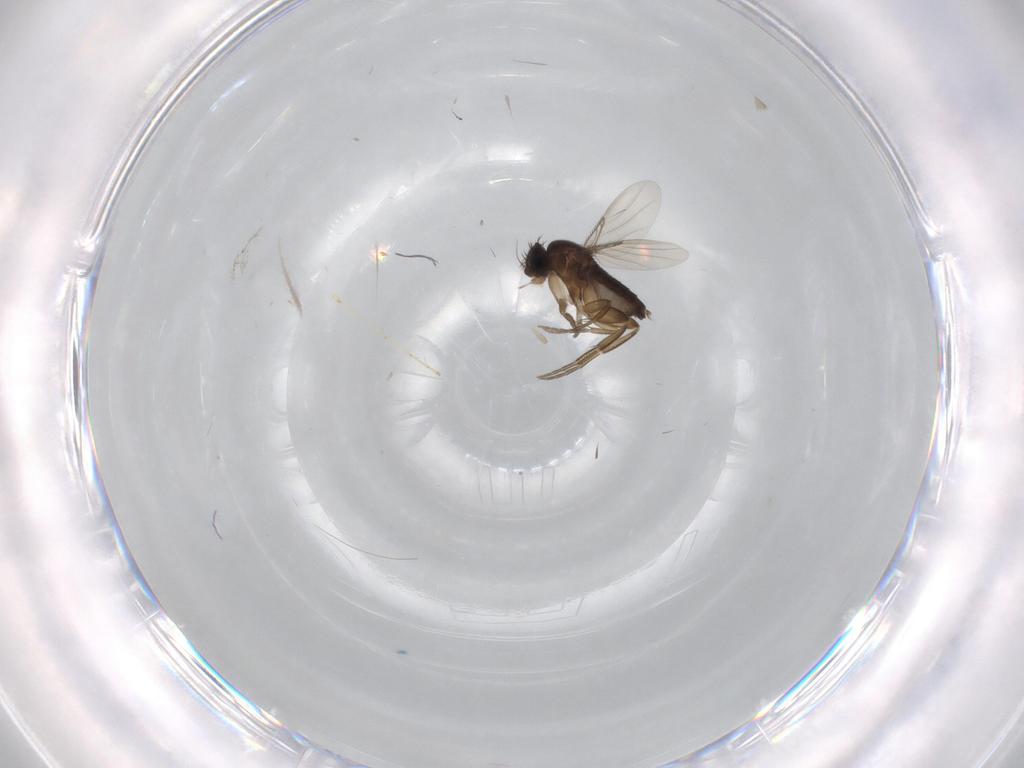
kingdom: Animalia
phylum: Arthropoda
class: Insecta
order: Diptera
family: Phoridae
